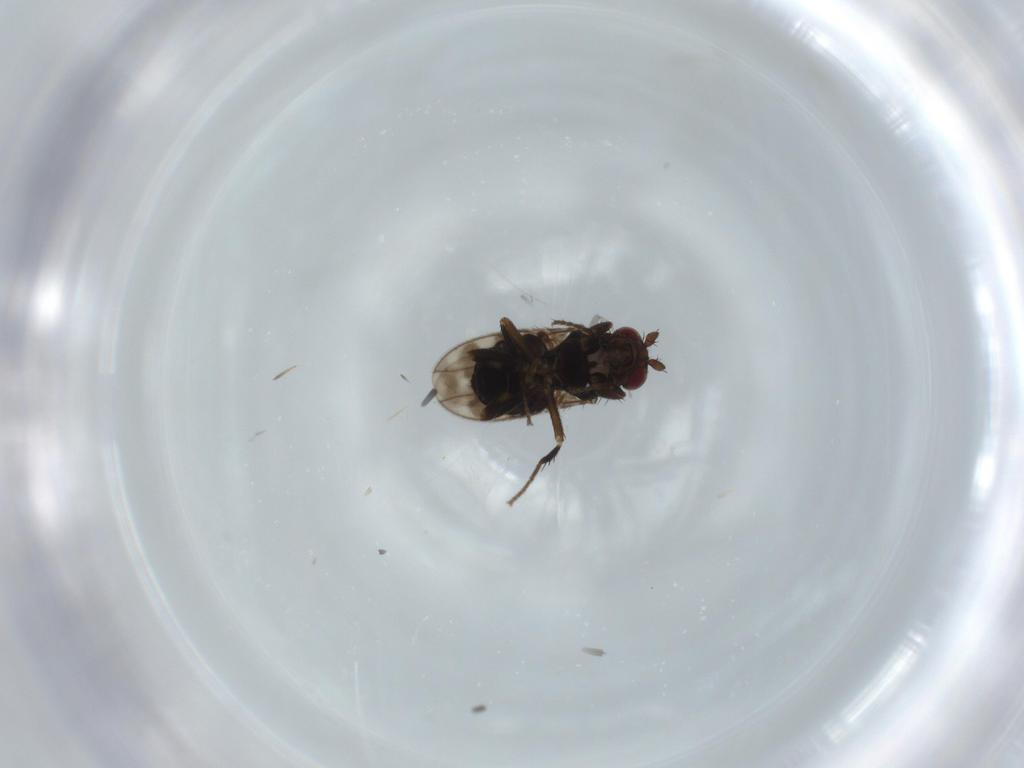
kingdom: Animalia
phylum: Arthropoda
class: Insecta
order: Diptera
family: Sphaeroceridae
